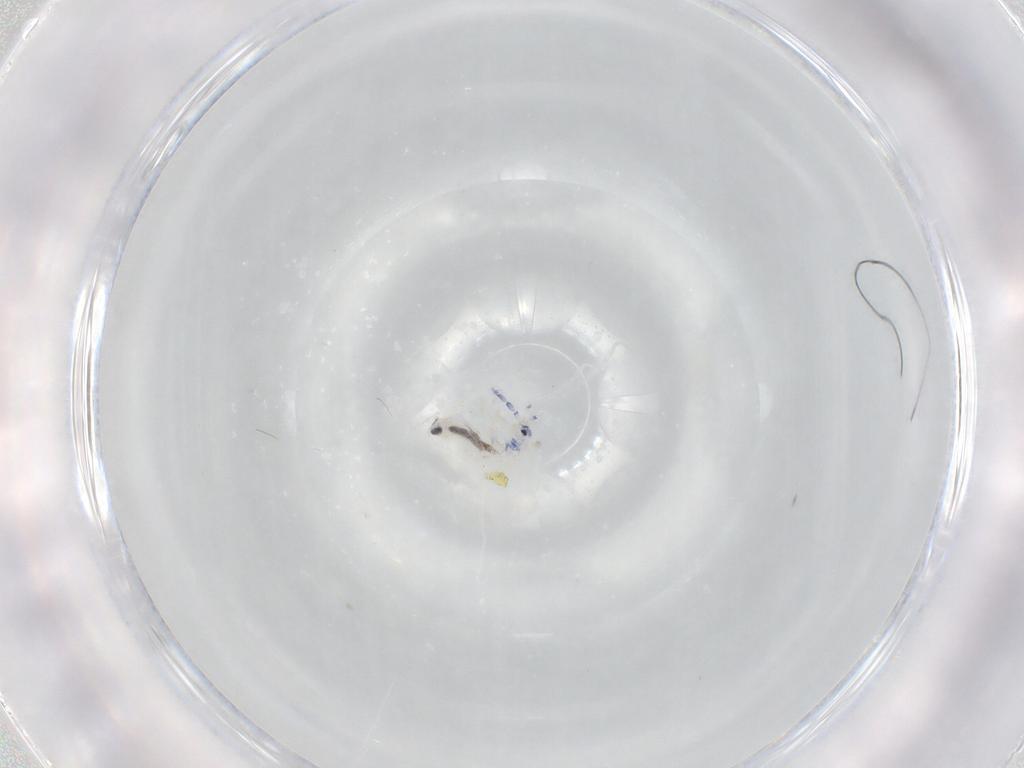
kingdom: Animalia
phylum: Arthropoda
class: Collembola
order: Entomobryomorpha
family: Entomobryidae
